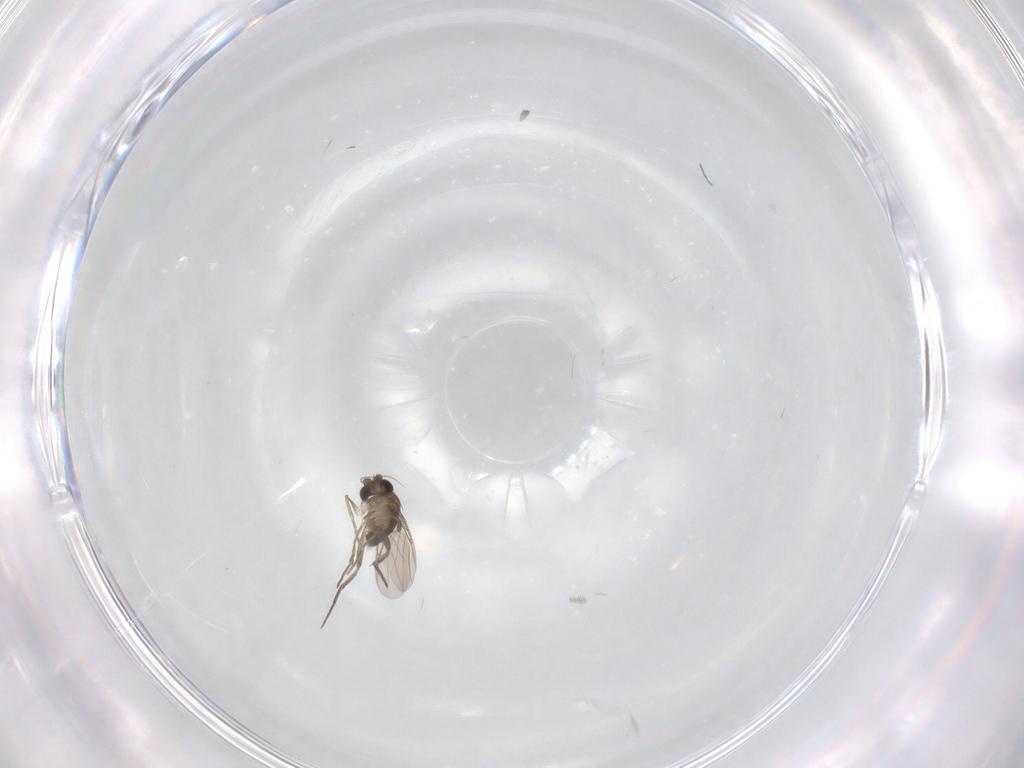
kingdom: Animalia
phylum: Arthropoda
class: Insecta
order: Diptera
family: Phoridae
